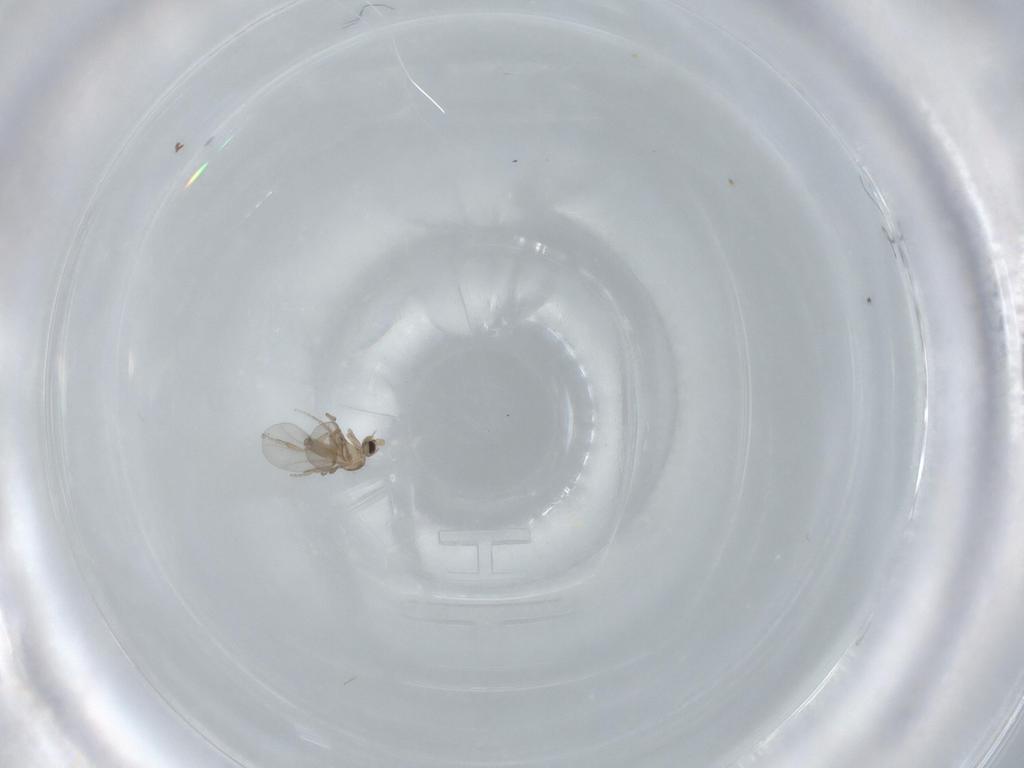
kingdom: Animalia
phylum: Arthropoda
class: Insecta
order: Diptera
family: Phoridae
